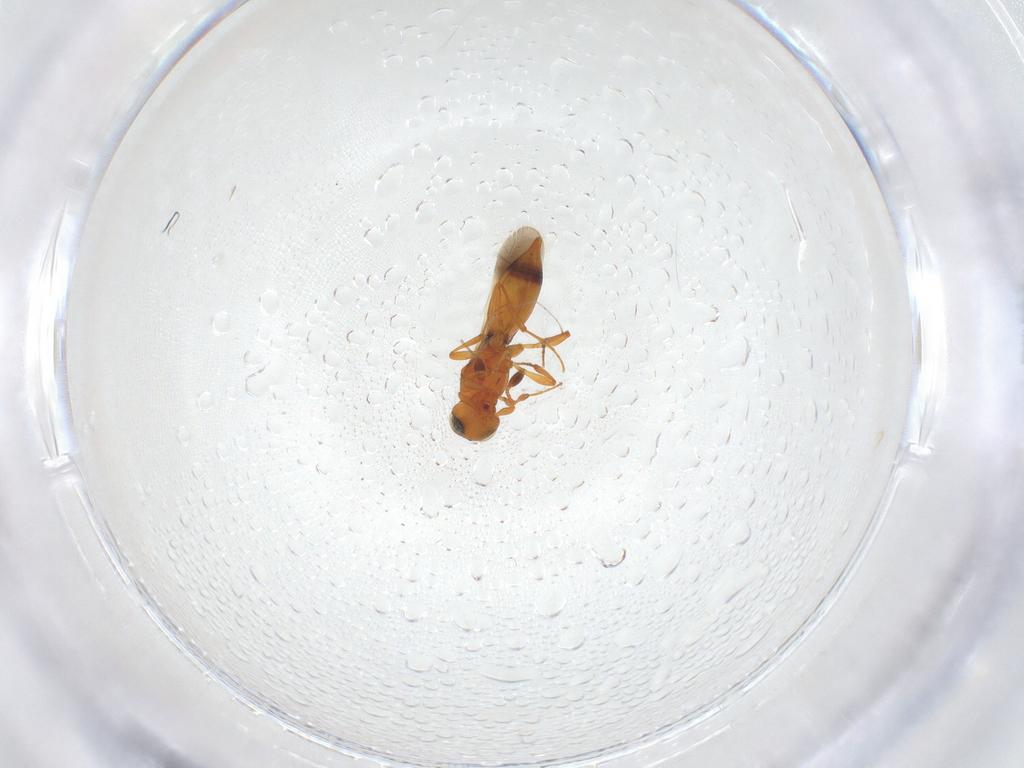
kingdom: Animalia
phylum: Arthropoda
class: Insecta
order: Hymenoptera
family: Platygastridae
